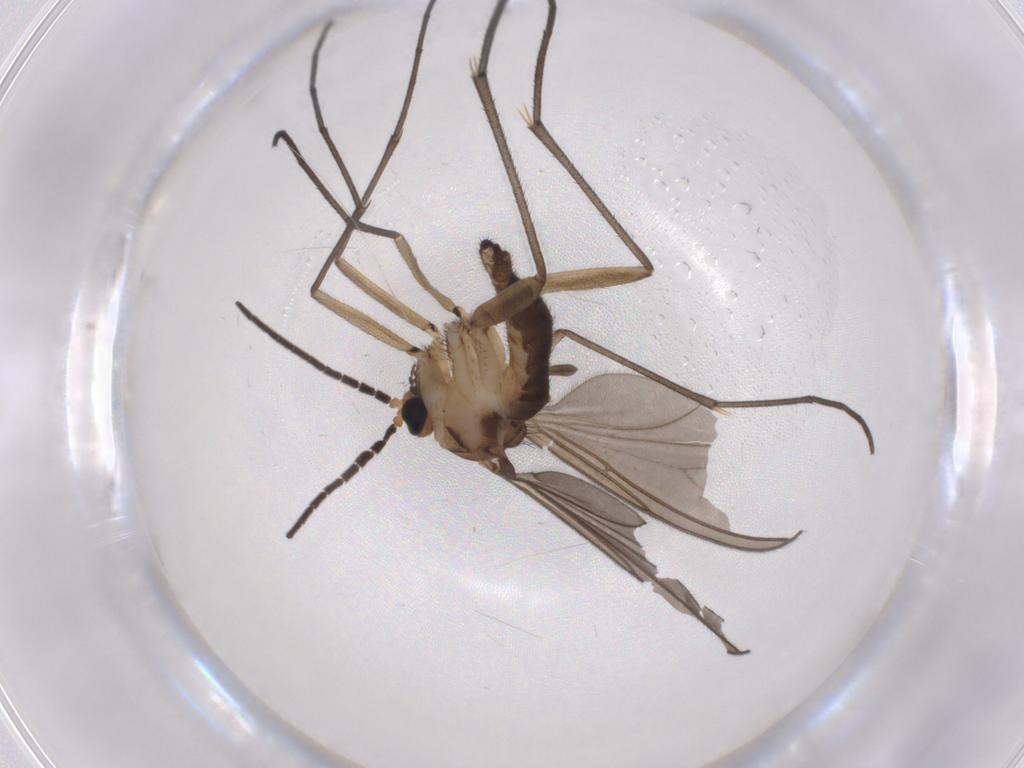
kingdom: Animalia
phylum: Arthropoda
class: Insecta
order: Diptera
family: Sciaridae
